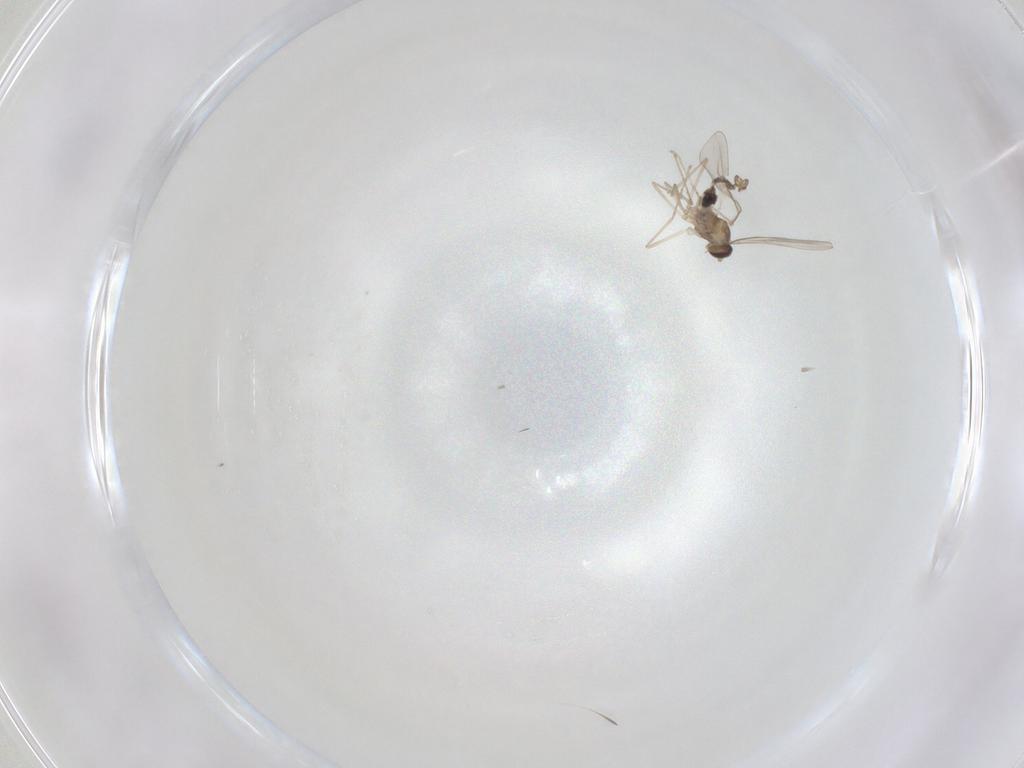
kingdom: Animalia
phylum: Arthropoda
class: Insecta
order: Diptera
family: Cecidomyiidae
